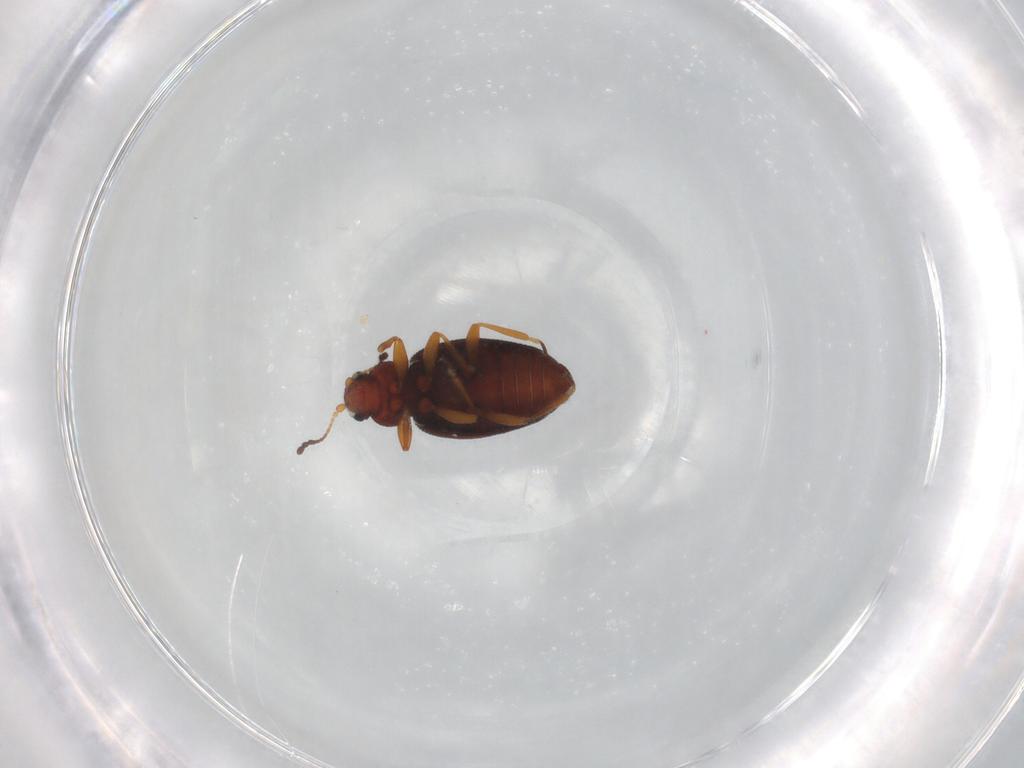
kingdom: Animalia
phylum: Arthropoda
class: Insecta
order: Coleoptera
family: Latridiidae
